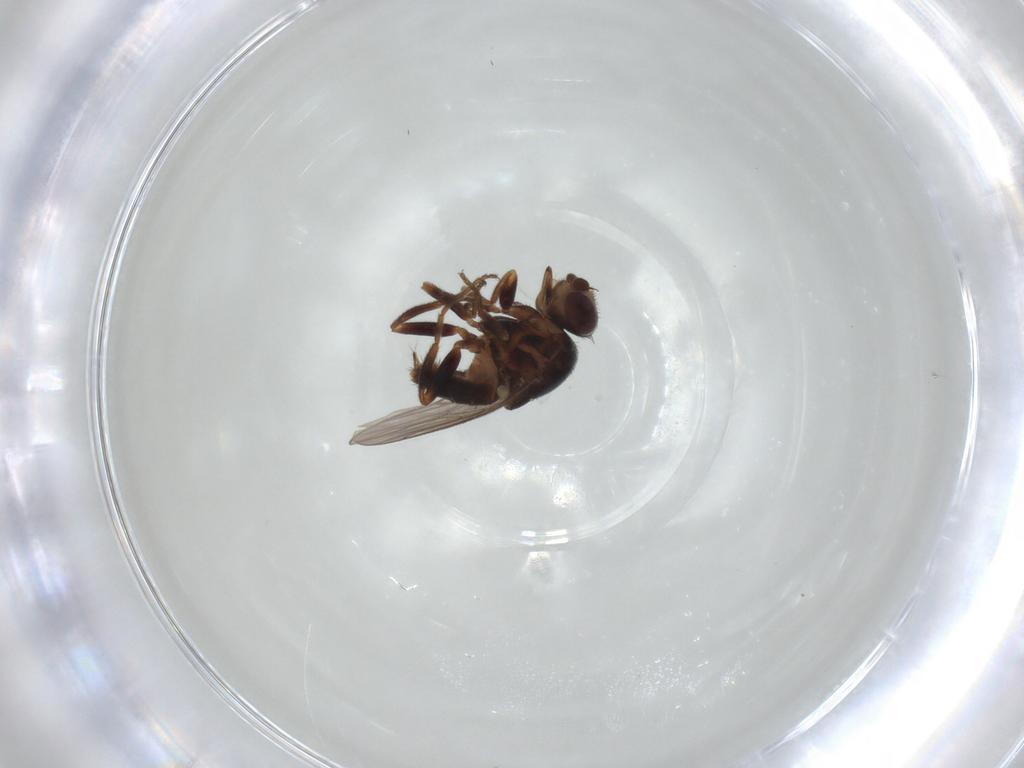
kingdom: Animalia
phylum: Arthropoda
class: Insecta
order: Diptera
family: Chloropidae
